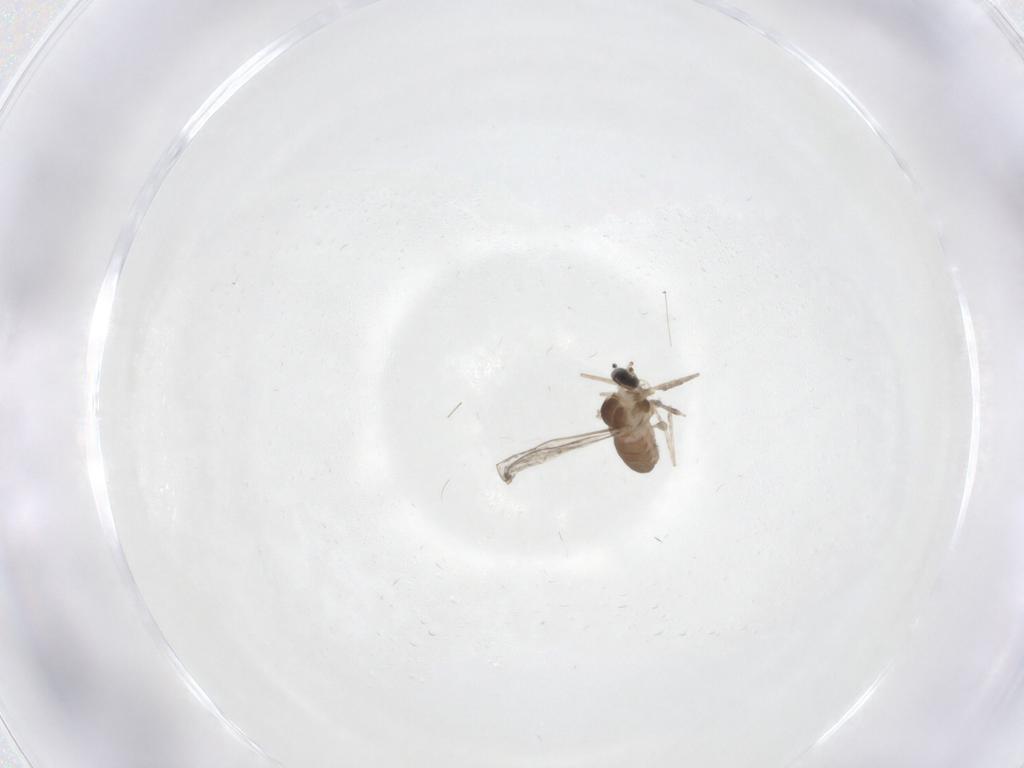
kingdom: Animalia
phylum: Arthropoda
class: Insecta
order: Diptera
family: Cecidomyiidae
